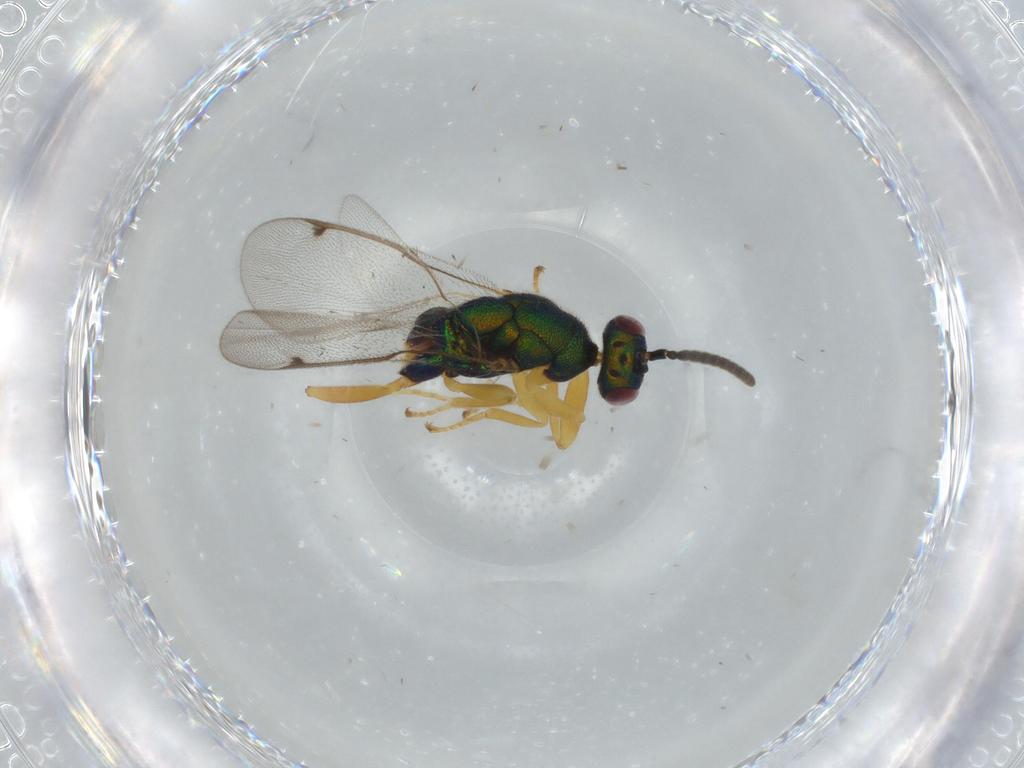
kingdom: Animalia
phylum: Arthropoda
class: Insecta
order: Hymenoptera
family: Torymidae
